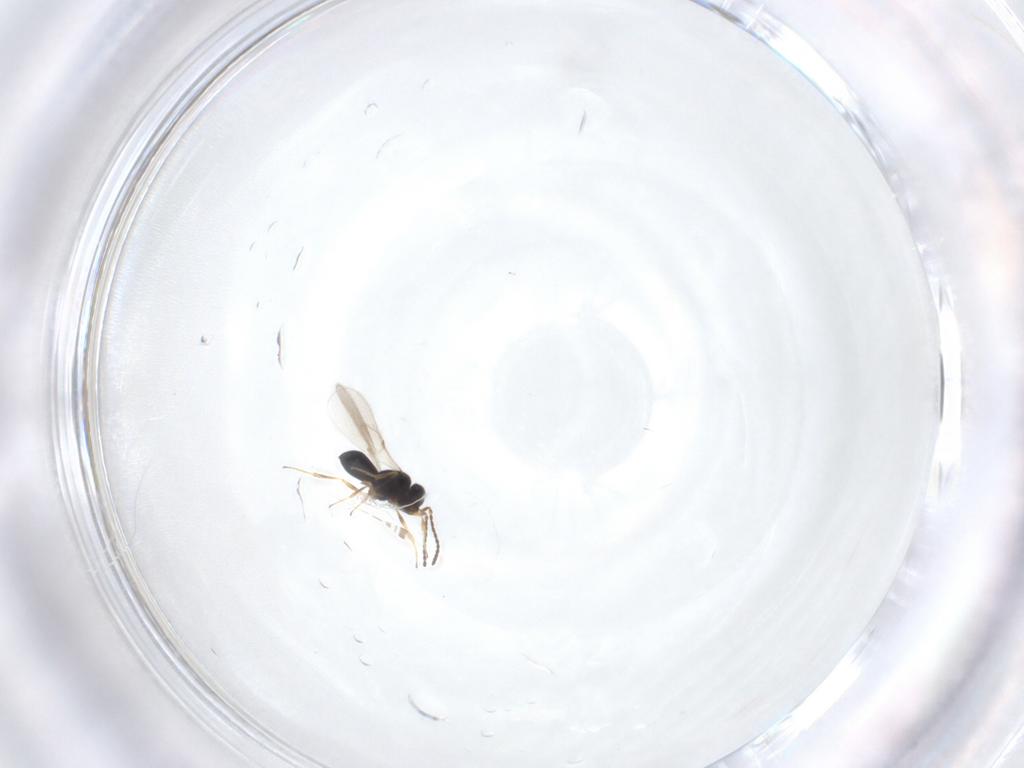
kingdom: Animalia
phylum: Arthropoda
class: Insecta
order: Hymenoptera
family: Scelionidae
